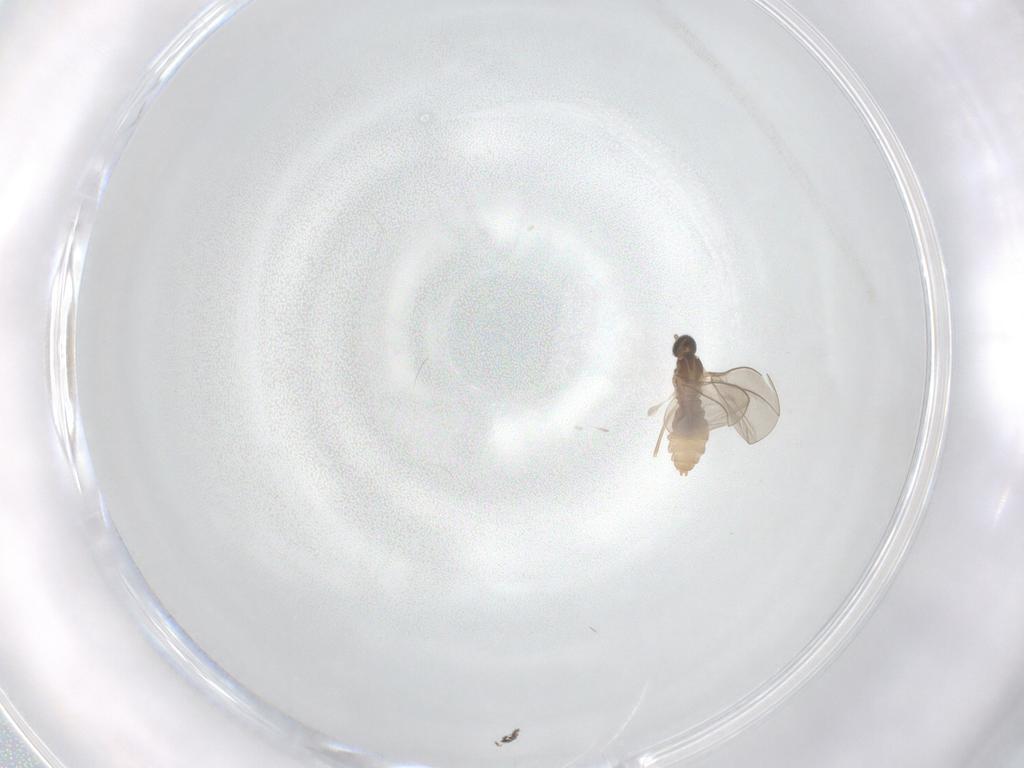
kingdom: Animalia
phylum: Arthropoda
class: Insecta
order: Diptera
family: Cecidomyiidae
